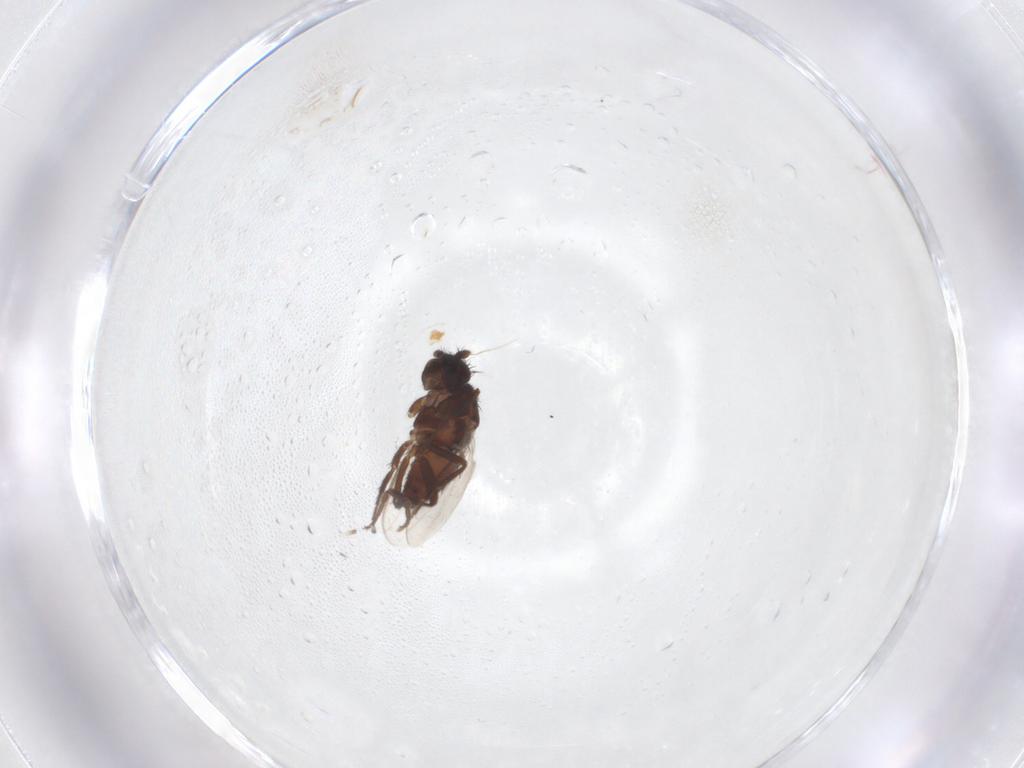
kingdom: Animalia
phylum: Arthropoda
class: Insecta
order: Diptera
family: Sphaeroceridae
